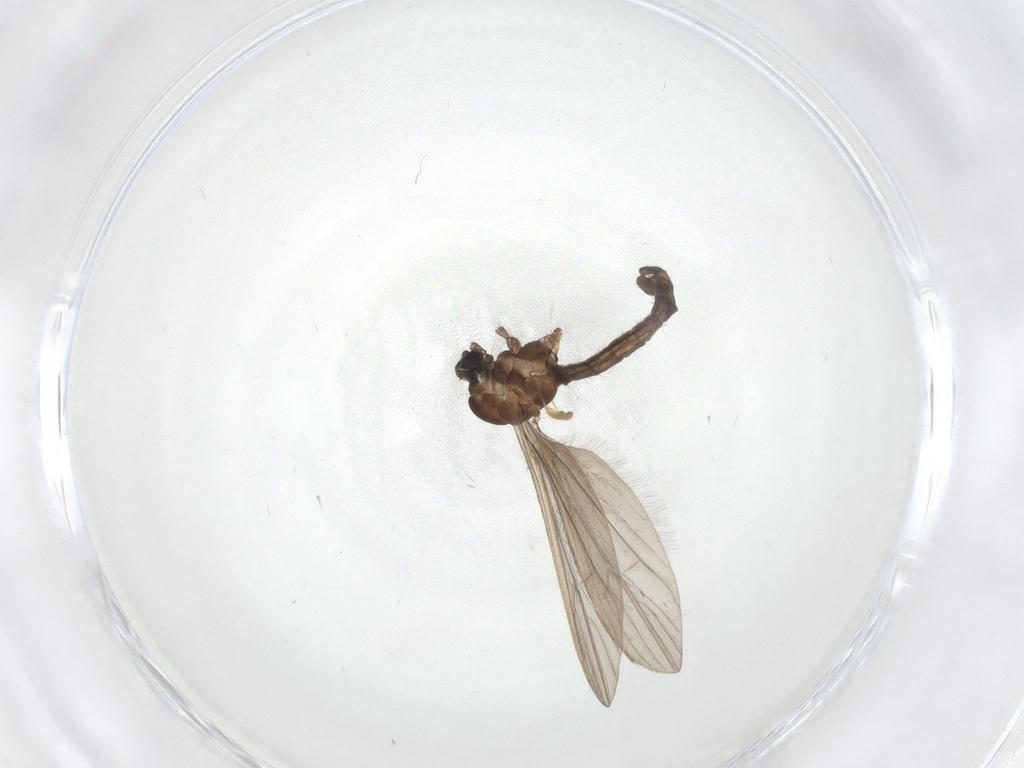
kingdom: Animalia
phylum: Arthropoda
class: Insecta
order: Diptera
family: Limoniidae
